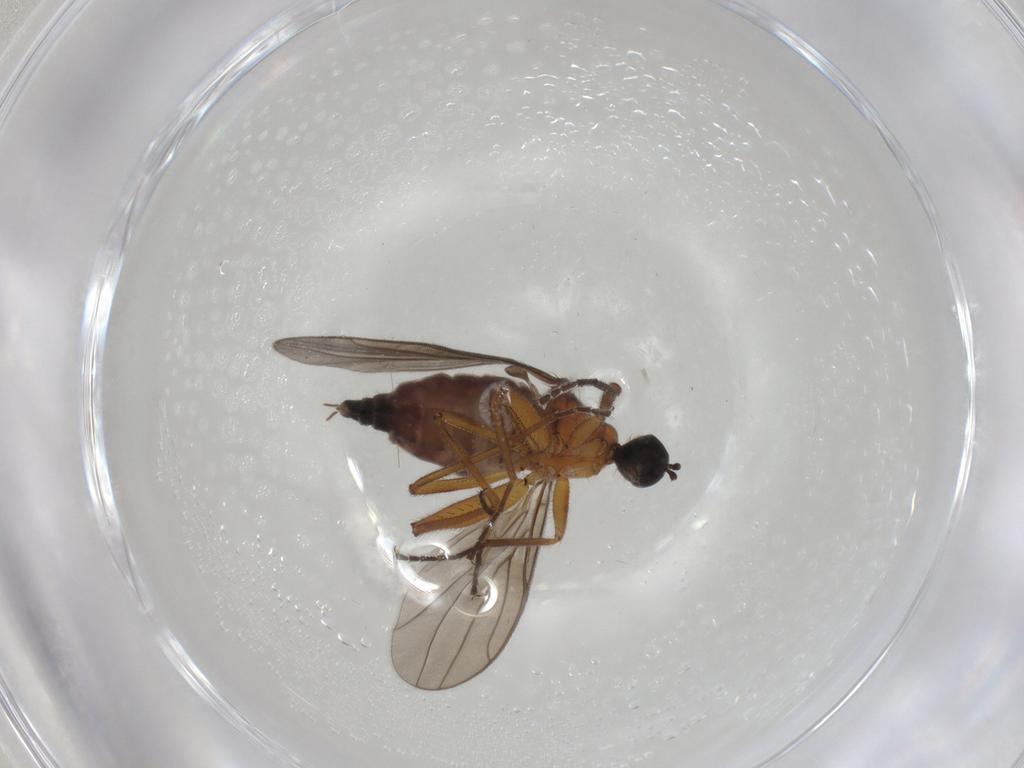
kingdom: Animalia
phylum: Arthropoda
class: Insecta
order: Diptera
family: Hybotidae
